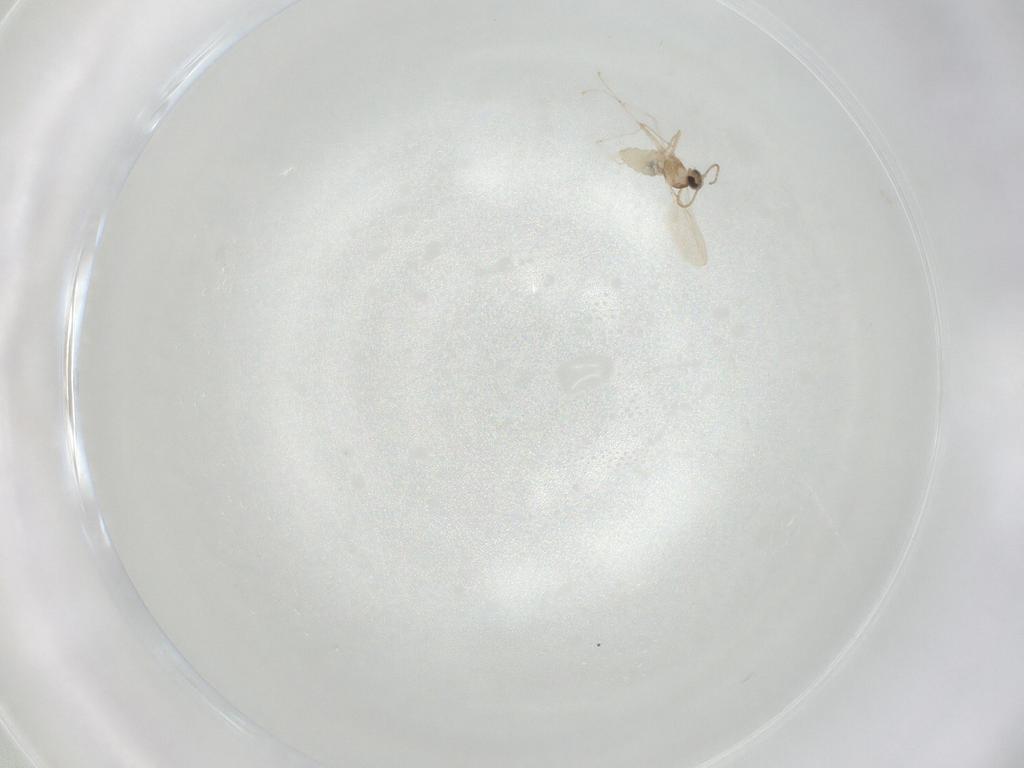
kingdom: Animalia
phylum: Arthropoda
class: Insecta
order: Diptera
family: Cecidomyiidae
